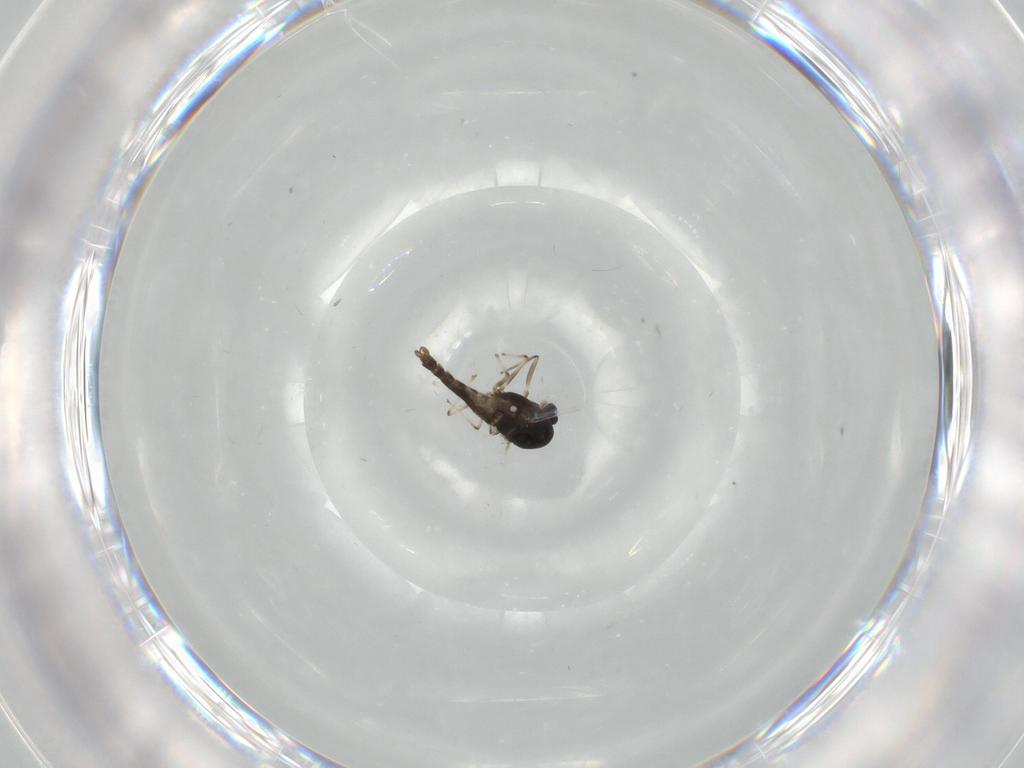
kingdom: Animalia
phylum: Arthropoda
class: Insecta
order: Diptera
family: Chironomidae
